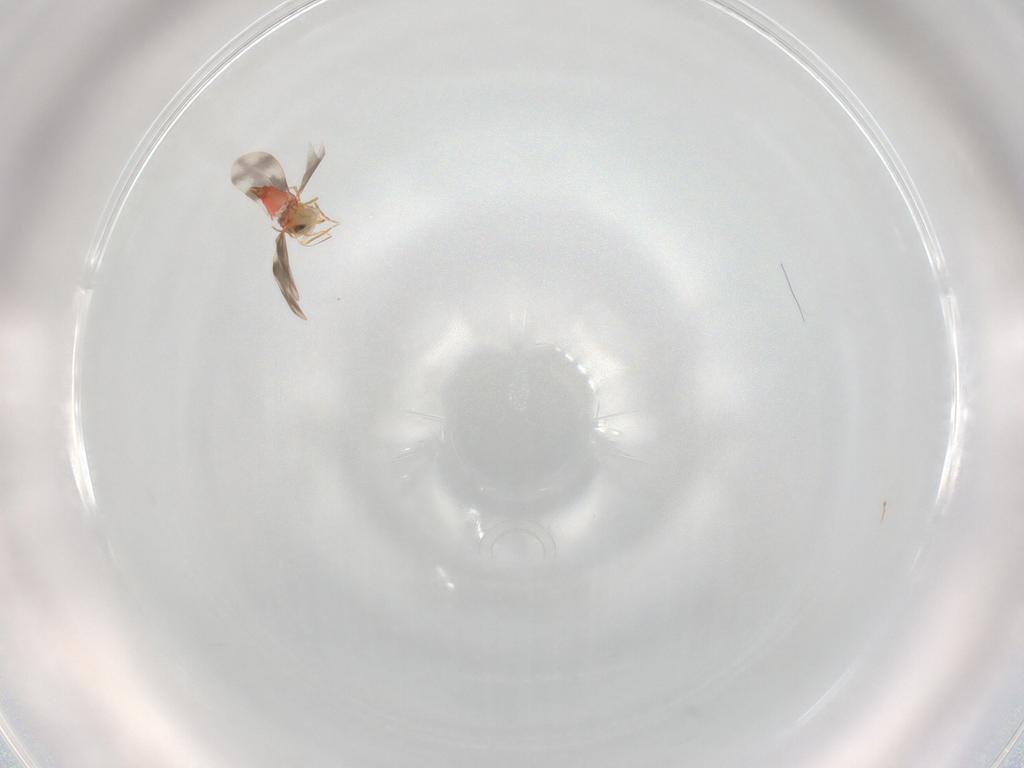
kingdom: Animalia
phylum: Arthropoda
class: Insecta
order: Hemiptera
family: Aleyrodidae
